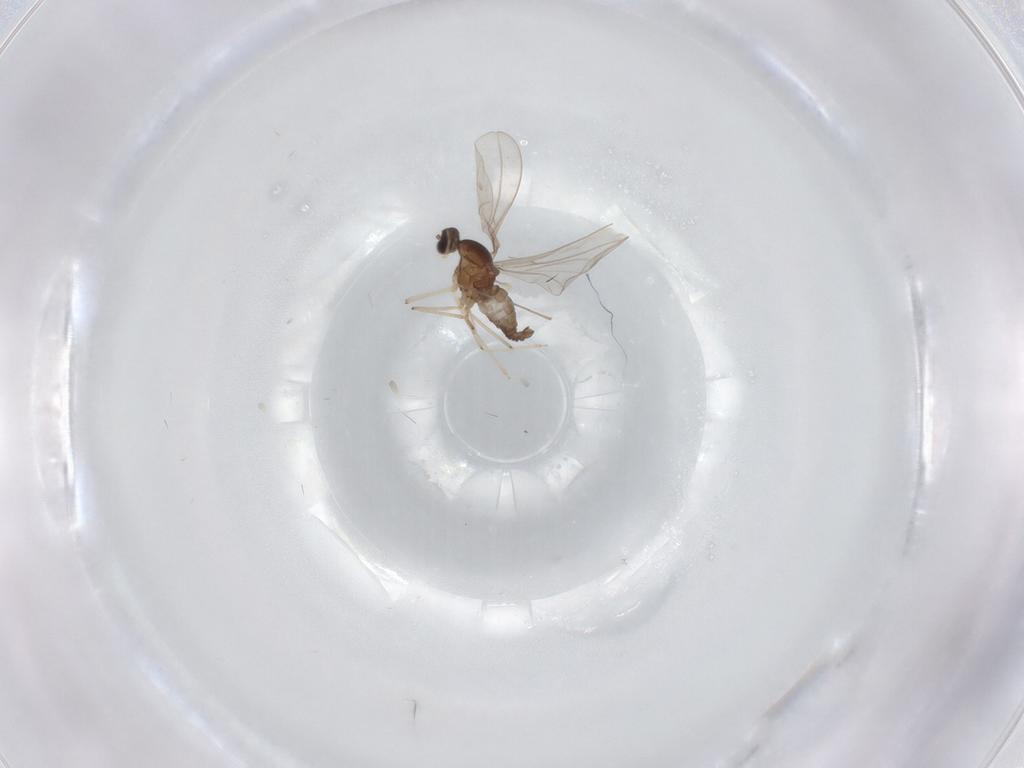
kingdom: Animalia
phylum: Arthropoda
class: Insecta
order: Diptera
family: Cecidomyiidae
